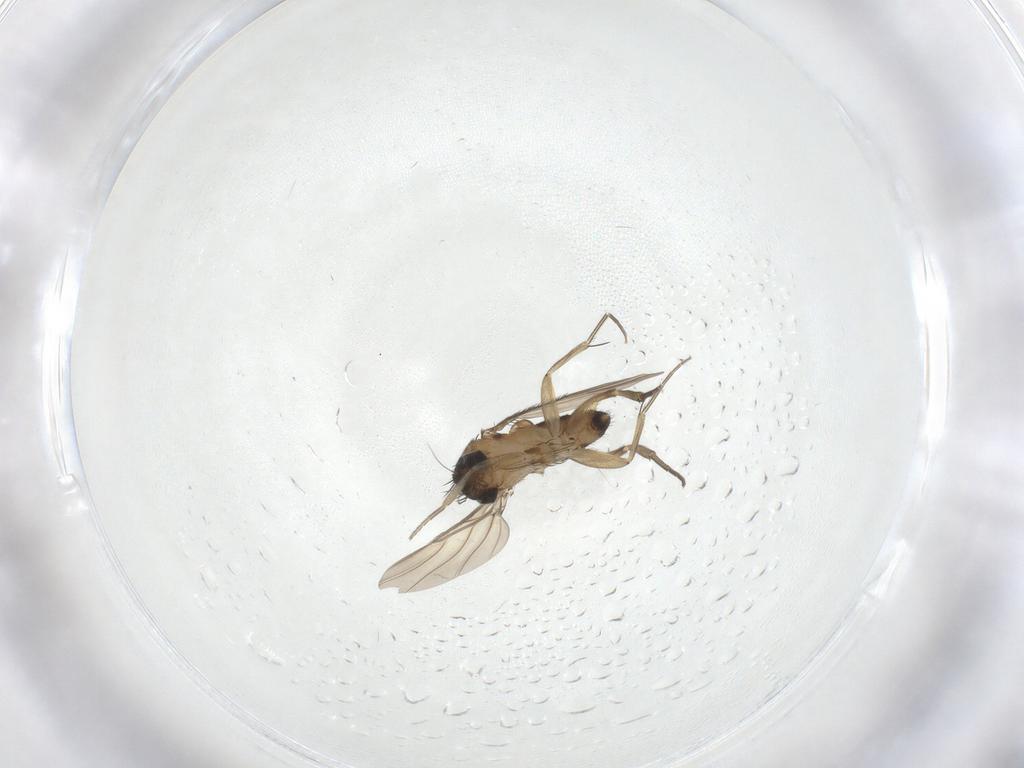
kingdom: Animalia
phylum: Arthropoda
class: Insecta
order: Diptera
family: Phoridae
